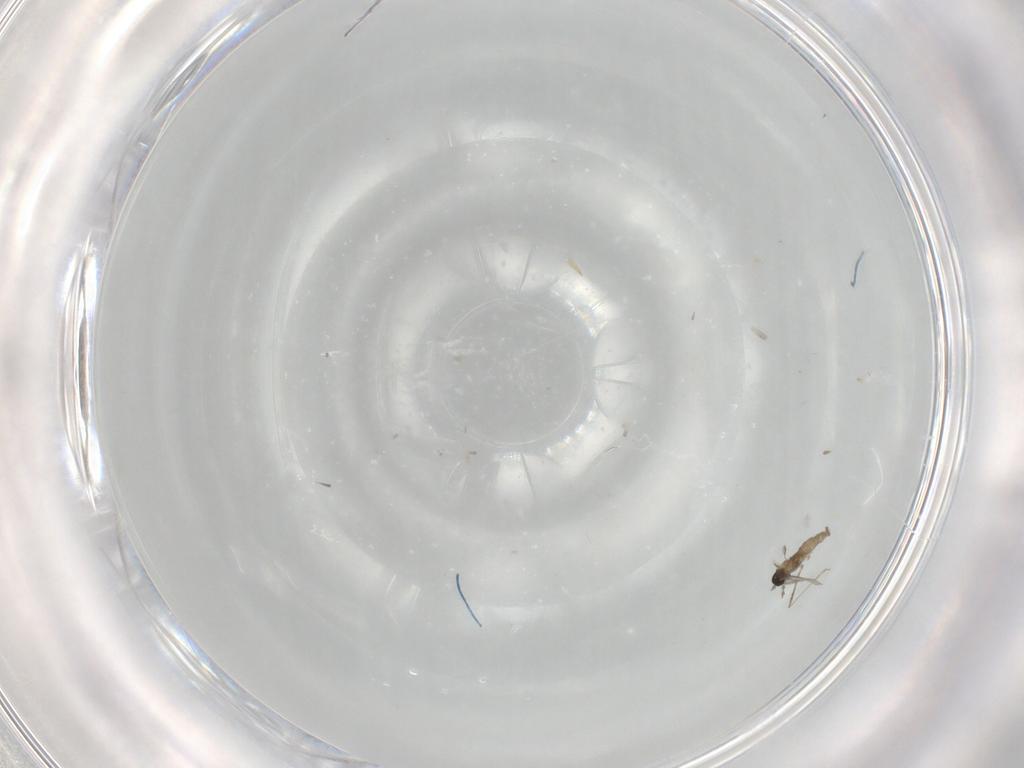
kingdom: Animalia
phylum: Arthropoda
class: Insecta
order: Diptera
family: Sciaridae
